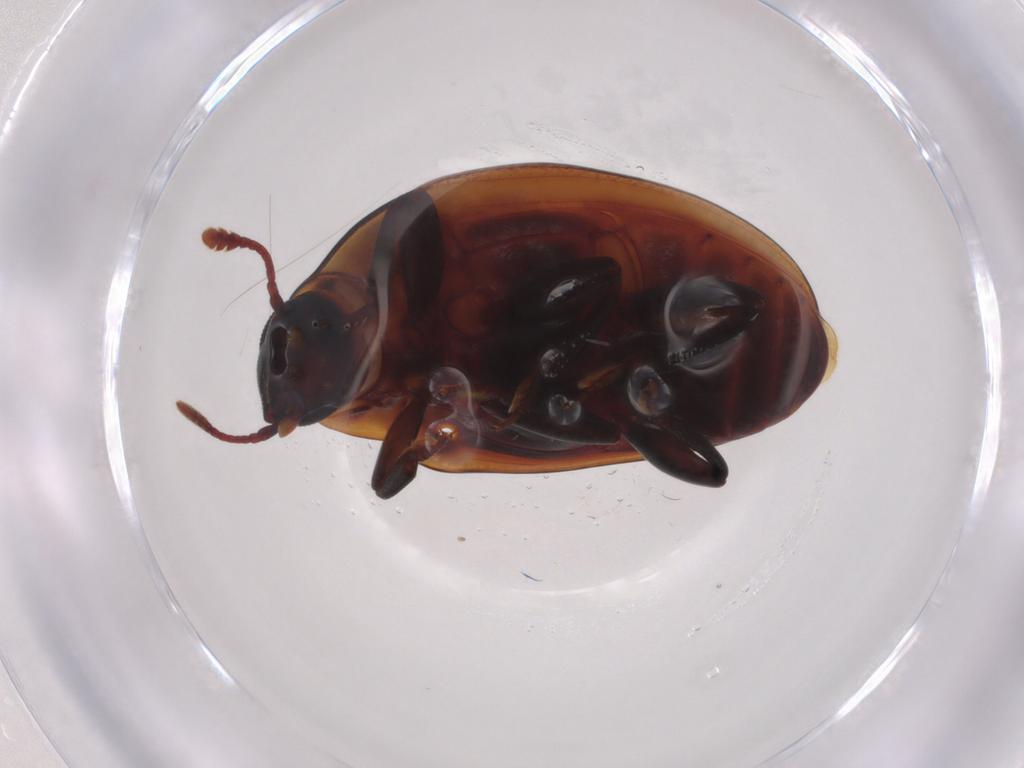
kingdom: Animalia
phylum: Arthropoda
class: Insecta
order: Coleoptera
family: Zopheridae
